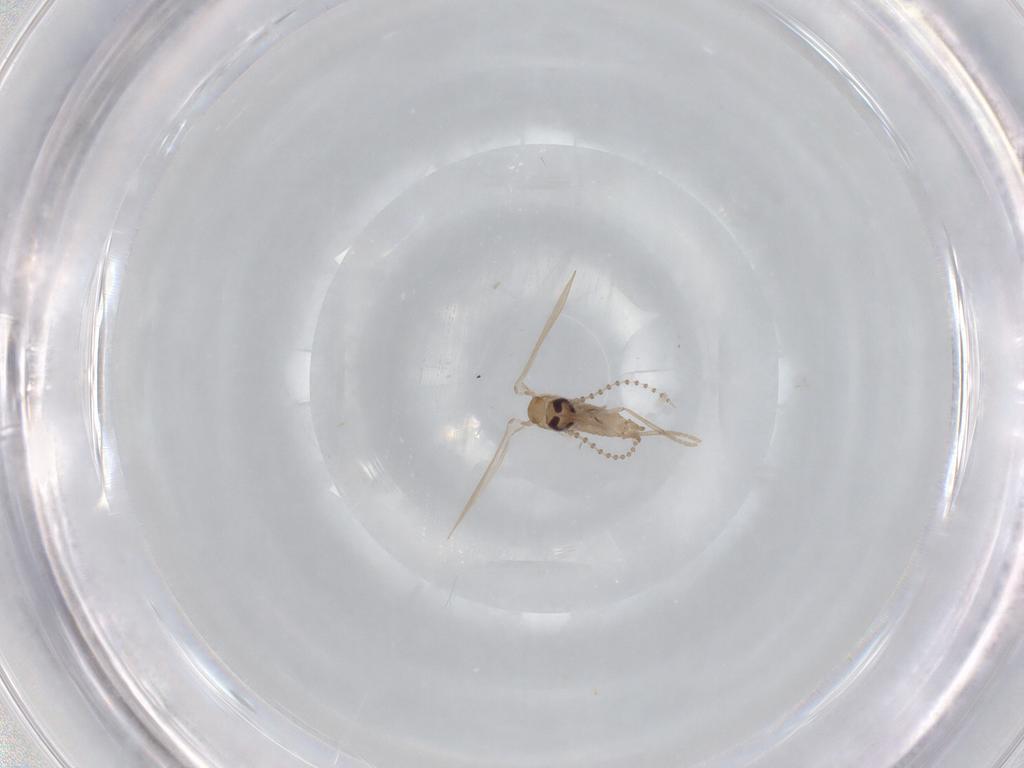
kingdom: Animalia
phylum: Arthropoda
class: Insecta
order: Diptera
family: Psychodidae
